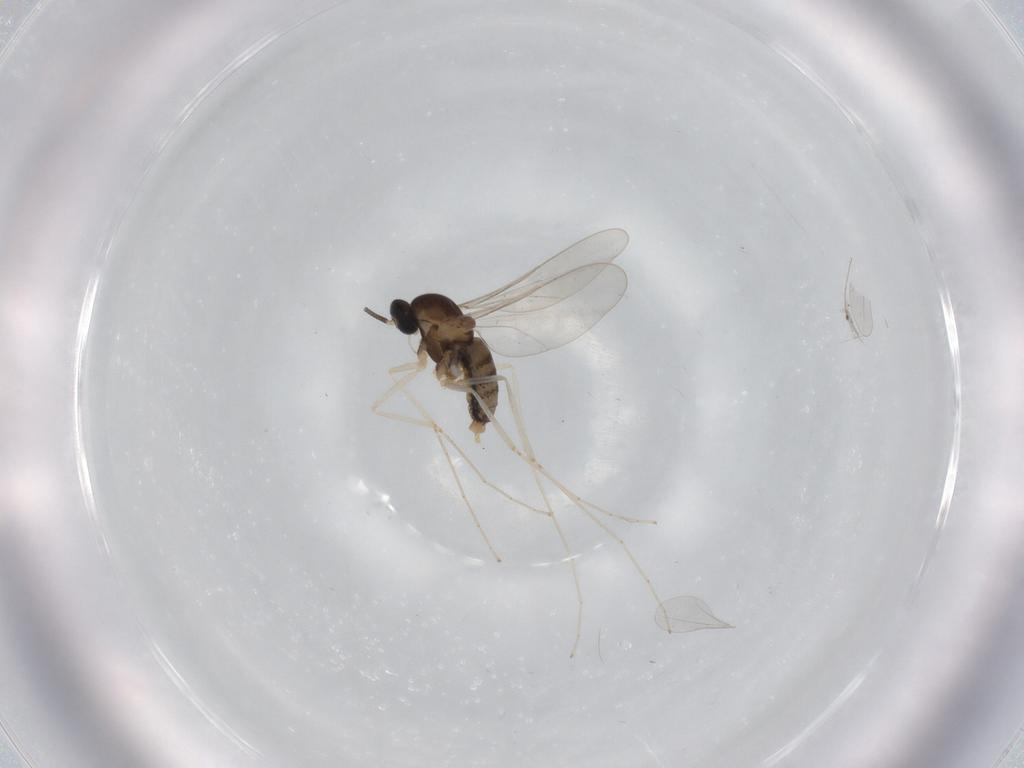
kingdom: Animalia
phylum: Arthropoda
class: Insecta
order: Diptera
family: Cecidomyiidae
